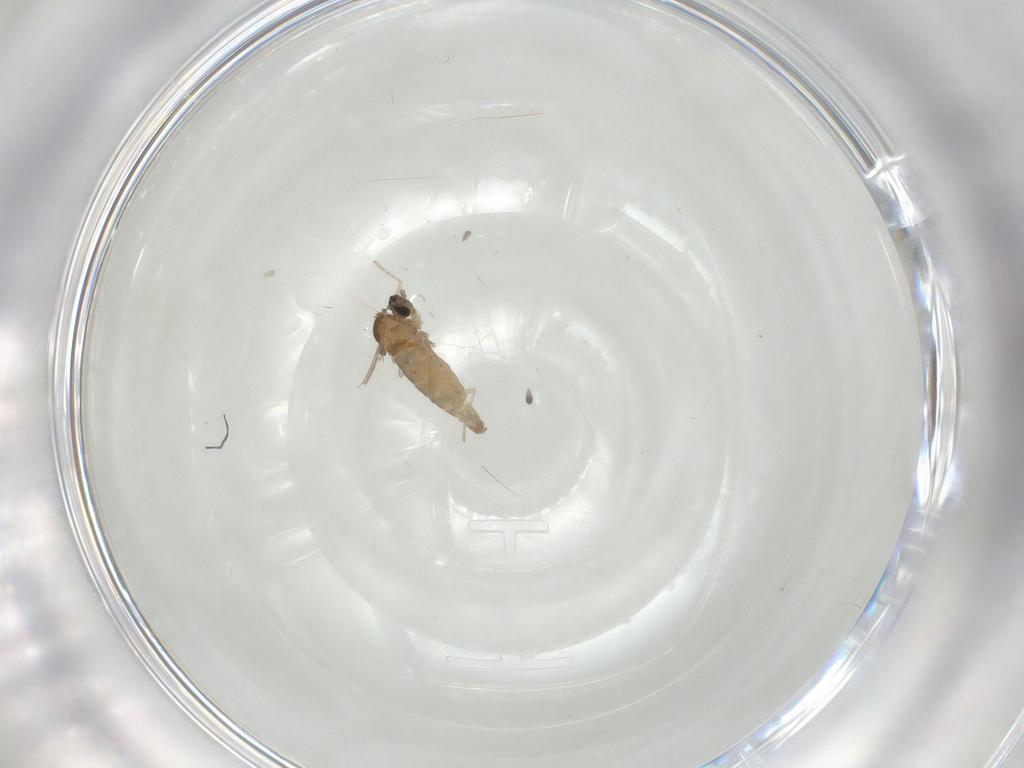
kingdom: Animalia
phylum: Arthropoda
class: Insecta
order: Diptera
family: Cecidomyiidae
